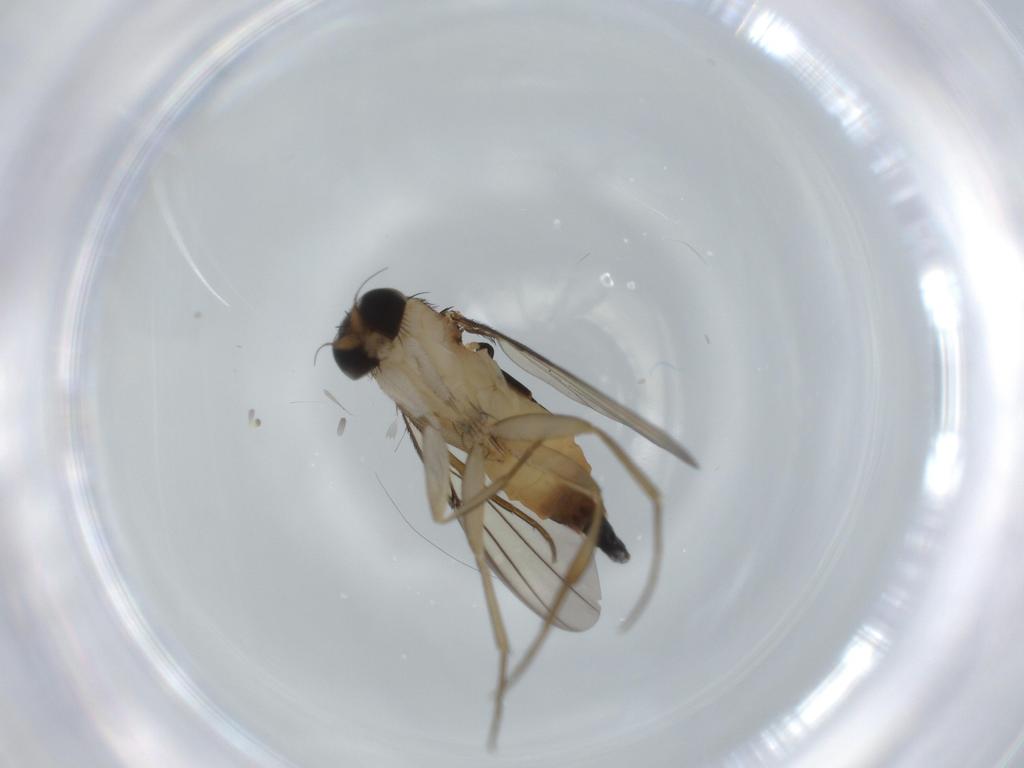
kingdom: Animalia
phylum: Arthropoda
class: Insecta
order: Diptera
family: Phoridae
